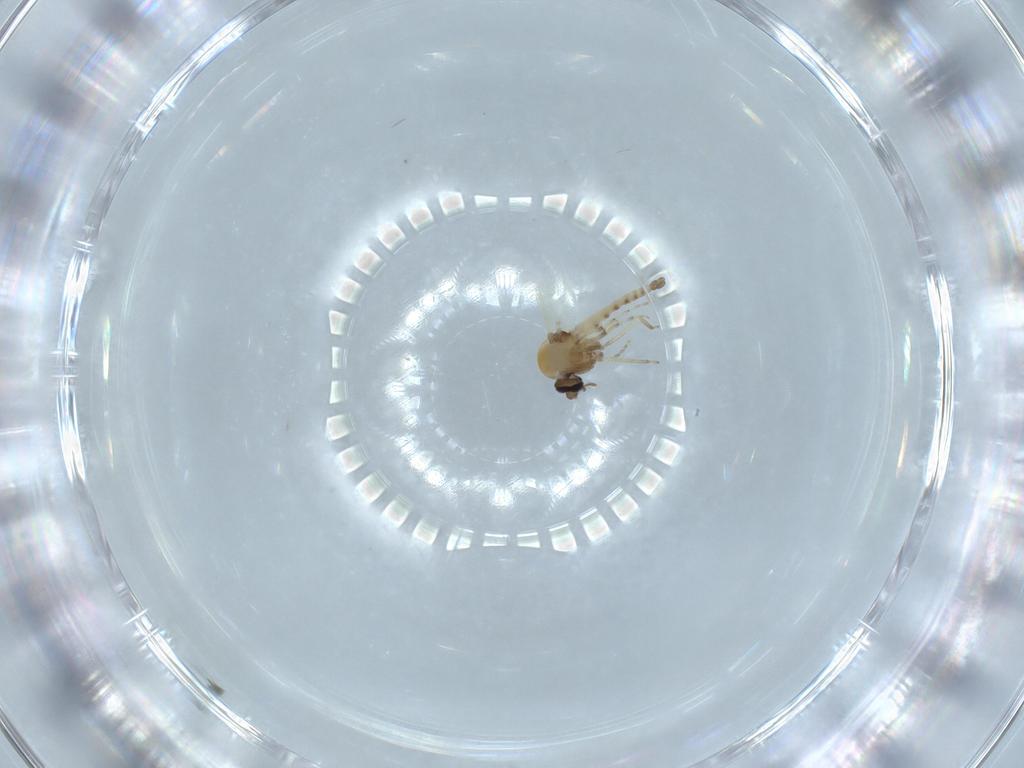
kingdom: Animalia
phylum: Arthropoda
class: Insecta
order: Diptera
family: Ceratopogonidae
